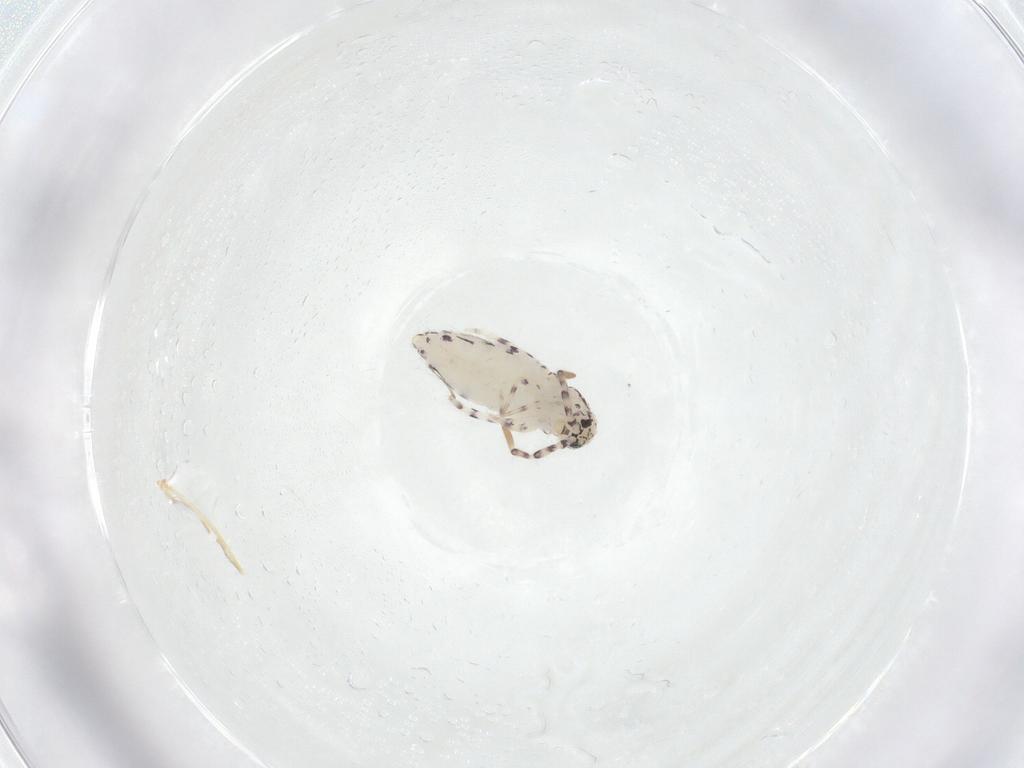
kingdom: Animalia
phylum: Arthropoda
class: Collembola
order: Entomobryomorpha
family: Entomobryidae
